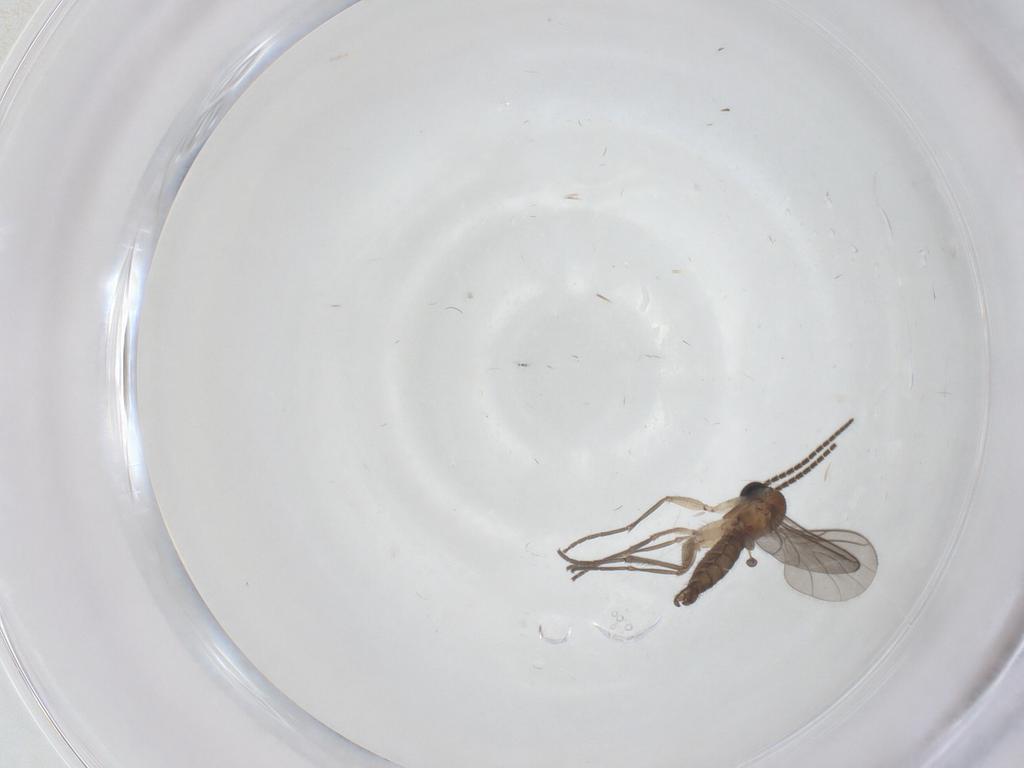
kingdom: Animalia
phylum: Arthropoda
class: Insecta
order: Diptera
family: Sciaridae
